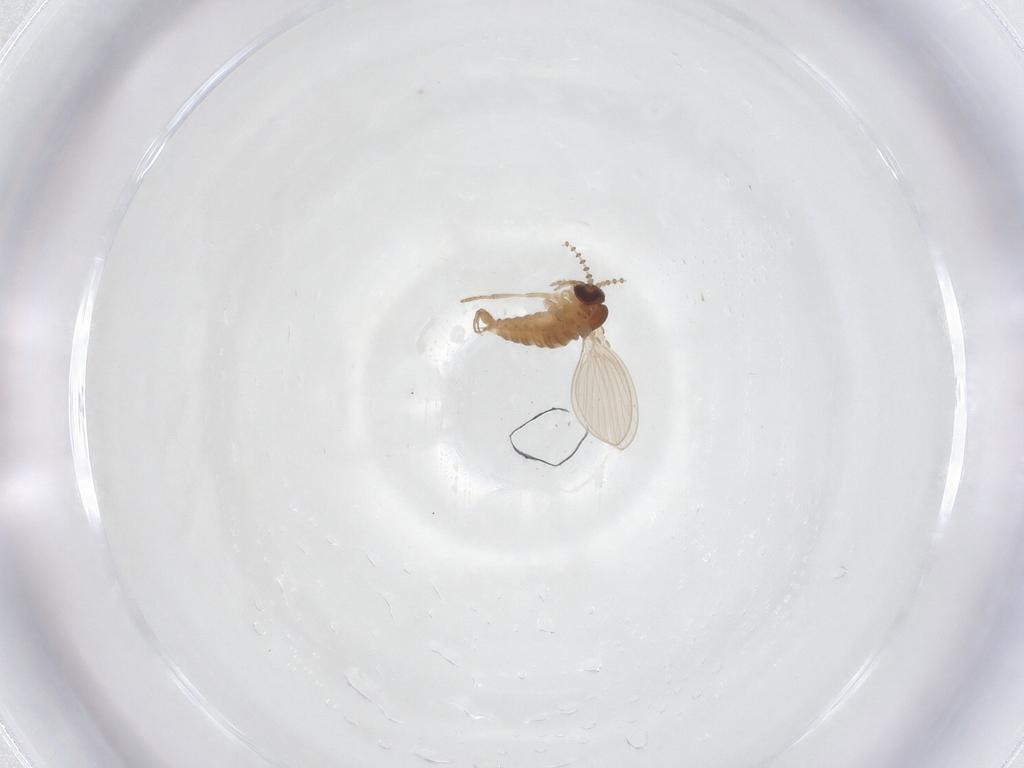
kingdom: Animalia
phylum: Arthropoda
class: Insecta
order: Diptera
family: Psychodidae
